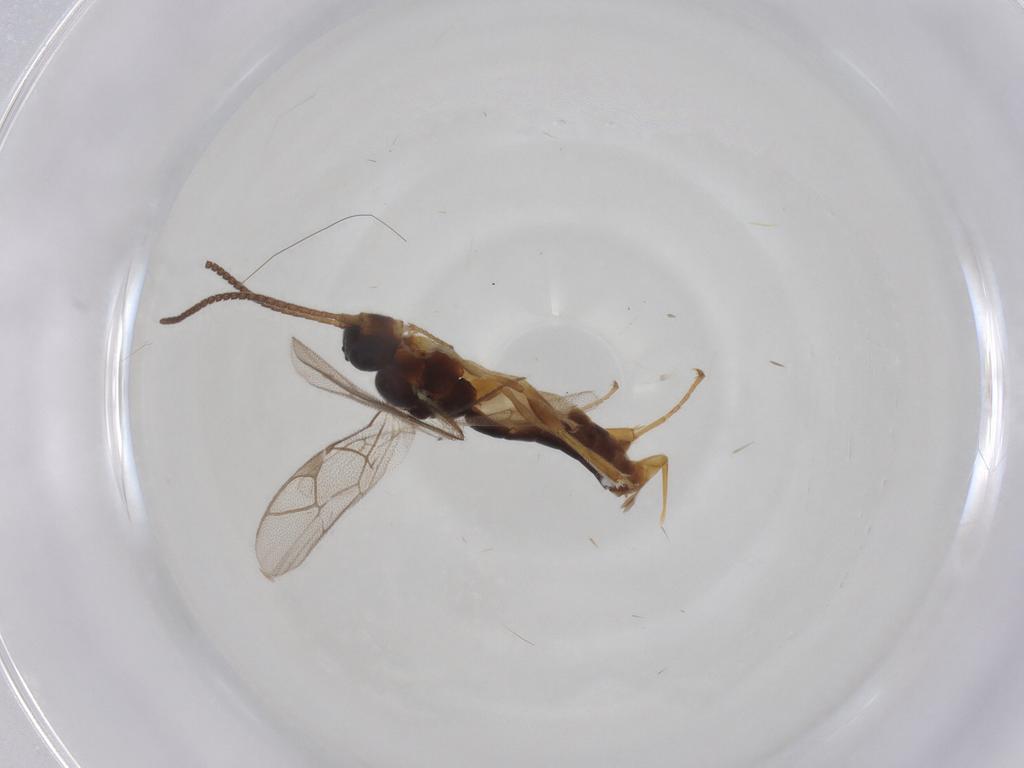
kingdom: Animalia
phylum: Arthropoda
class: Insecta
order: Hymenoptera
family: Ichneumonidae
